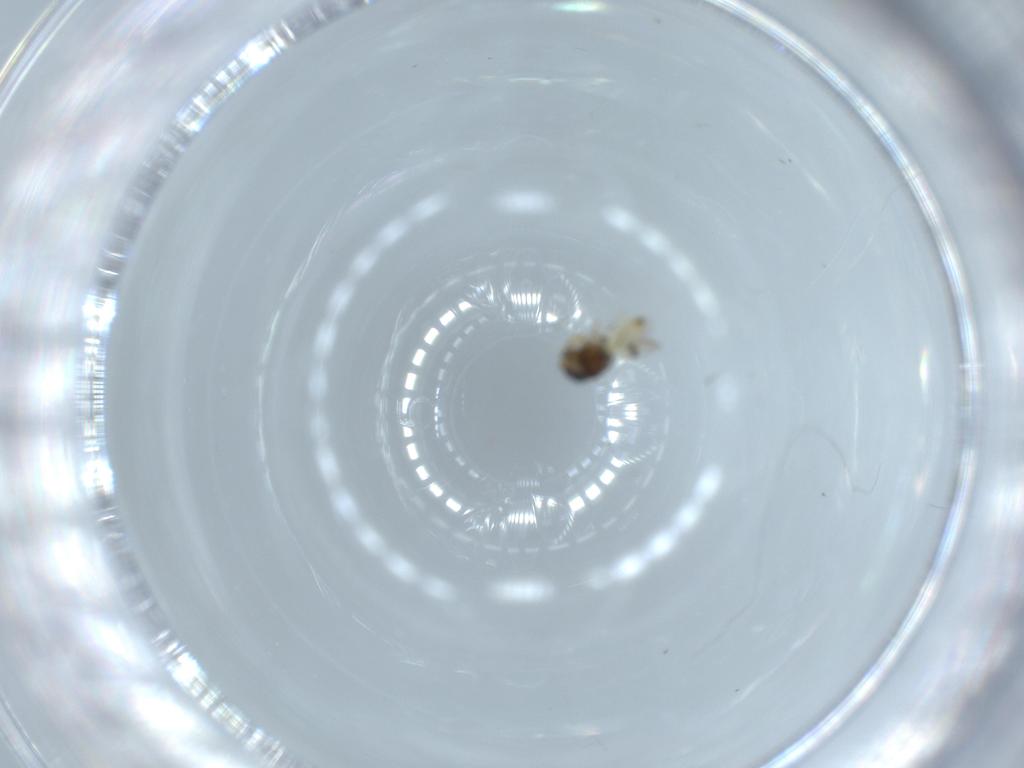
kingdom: Animalia
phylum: Arthropoda
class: Insecta
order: Hymenoptera
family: Scelionidae
